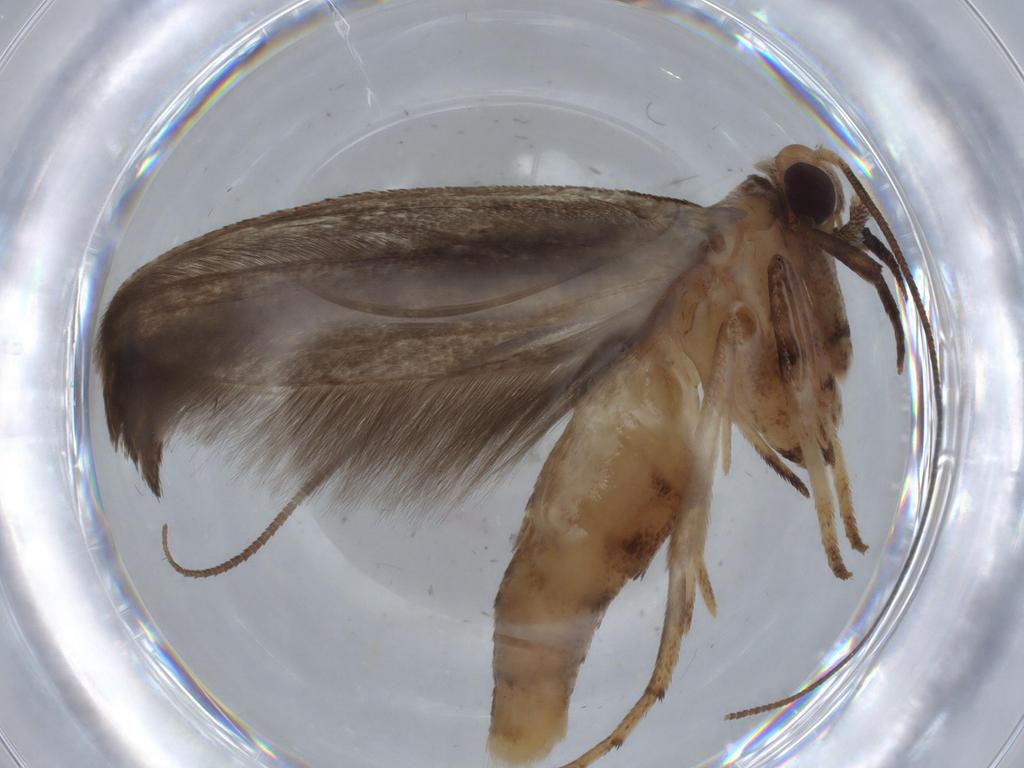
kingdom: Animalia
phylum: Arthropoda
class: Insecta
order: Lepidoptera
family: Yponomeutidae
